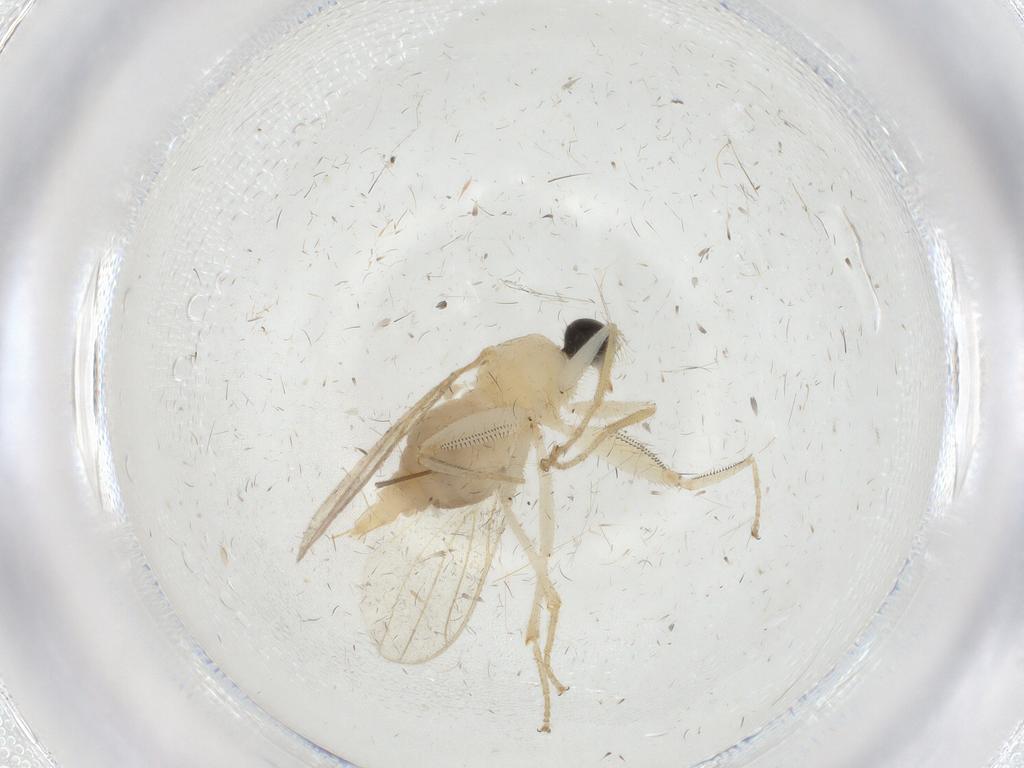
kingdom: Animalia
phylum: Arthropoda
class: Insecta
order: Diptera
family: Hybotidae
